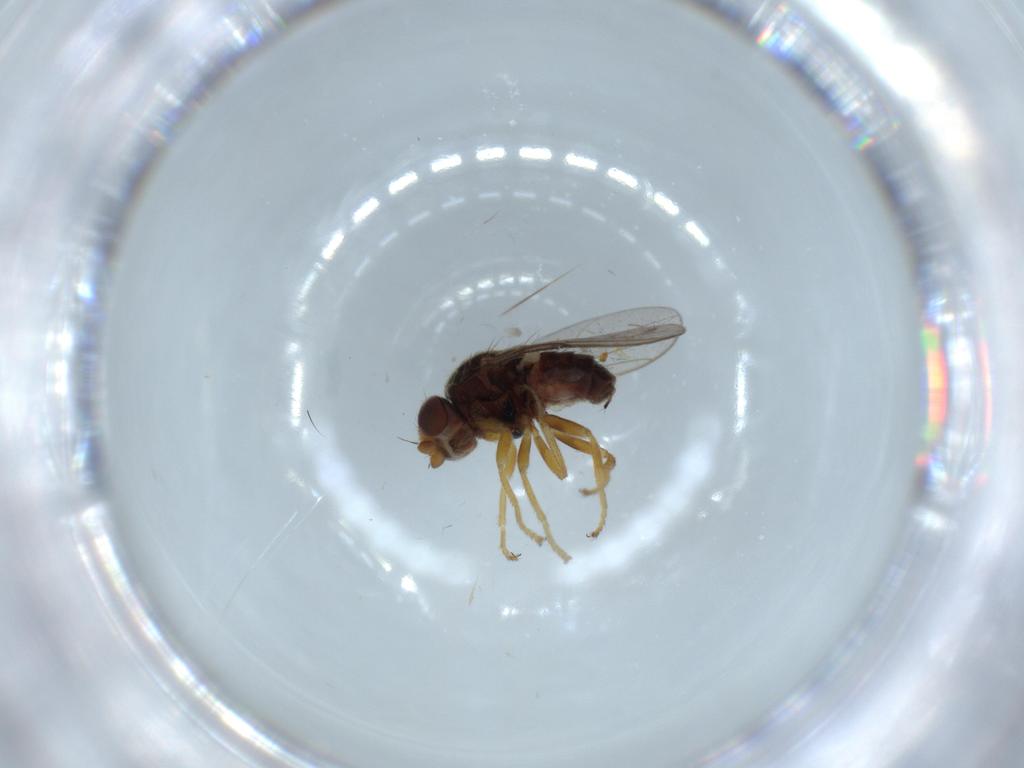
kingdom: Animalia
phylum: Arthropoda
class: Insecta
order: Diptera
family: Chloropidae
